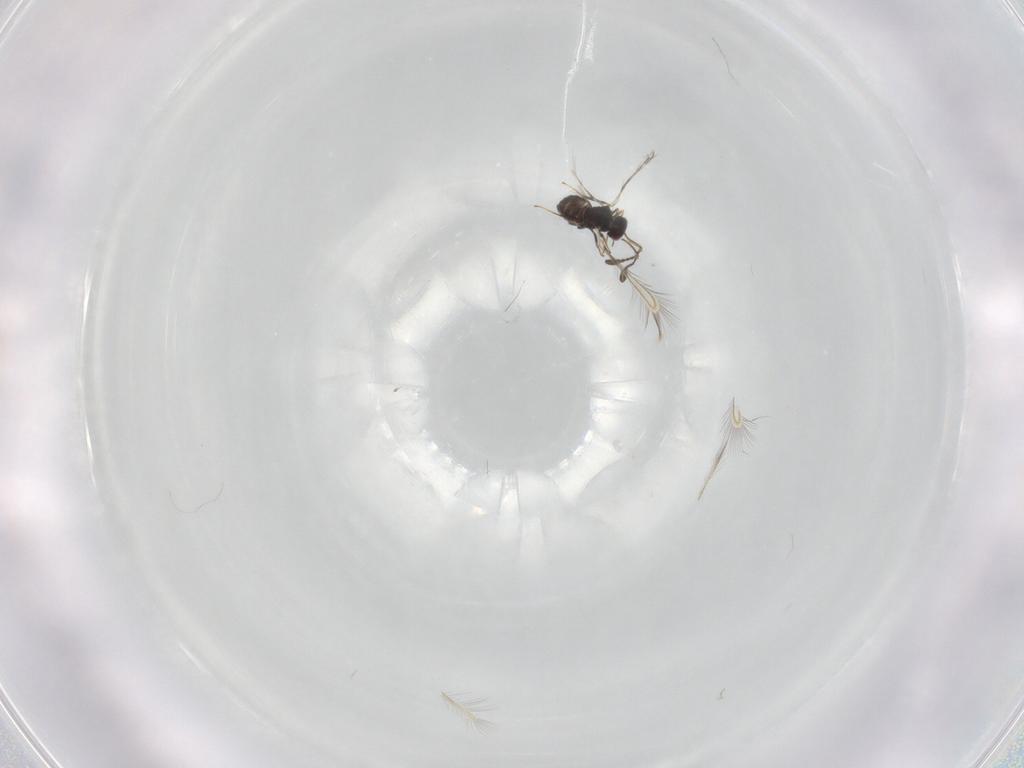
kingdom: Animalia
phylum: Arthropoda
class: Insecta
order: Hymenoptera
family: Mymaridae
